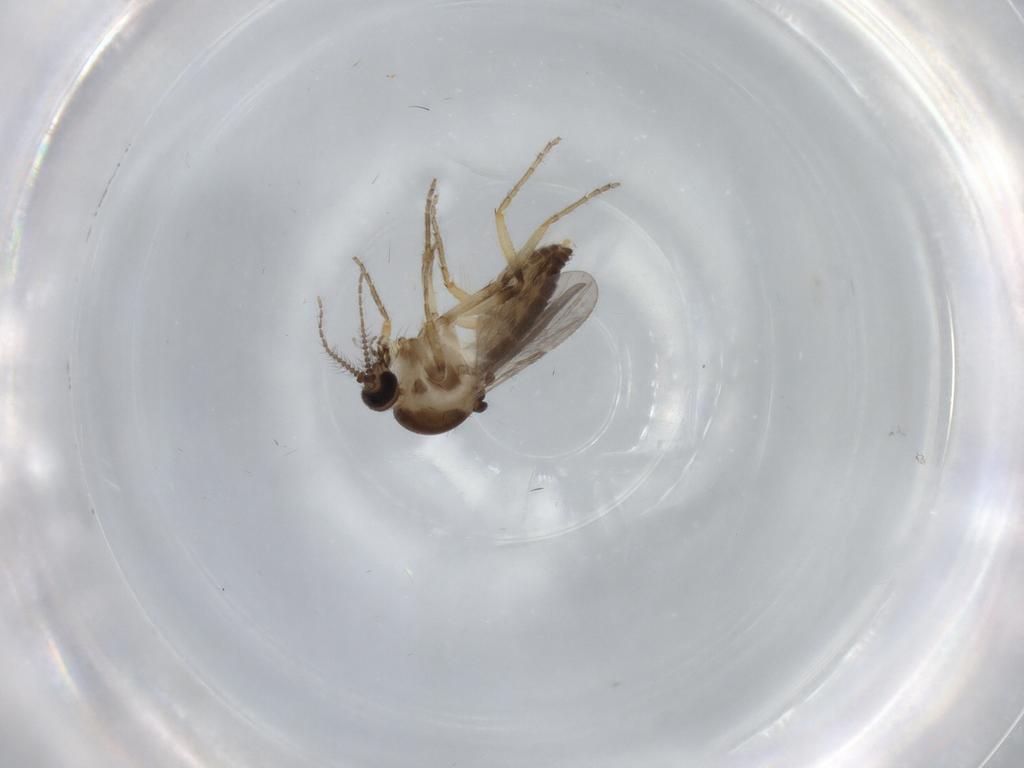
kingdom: Animalia
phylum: Arthropoda
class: Insecta
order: Diptera
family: Ceratopogonidae
